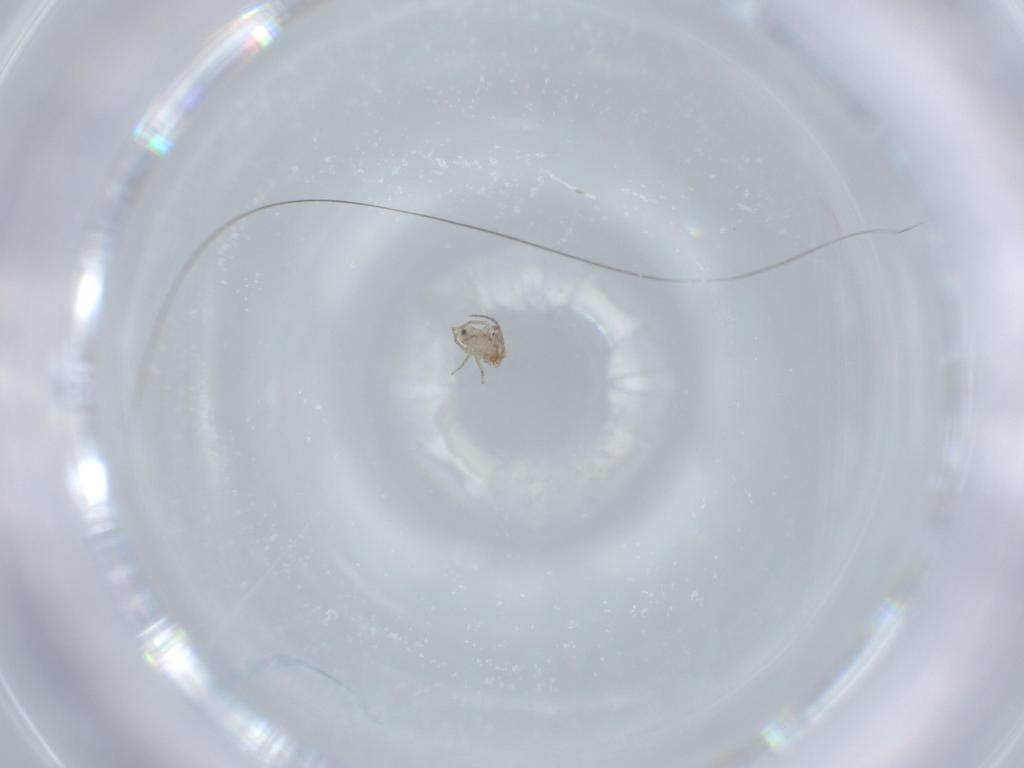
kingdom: Animalia
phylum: Arthropoda
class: Insecta
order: Psocodea
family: Ptiloneuridae
